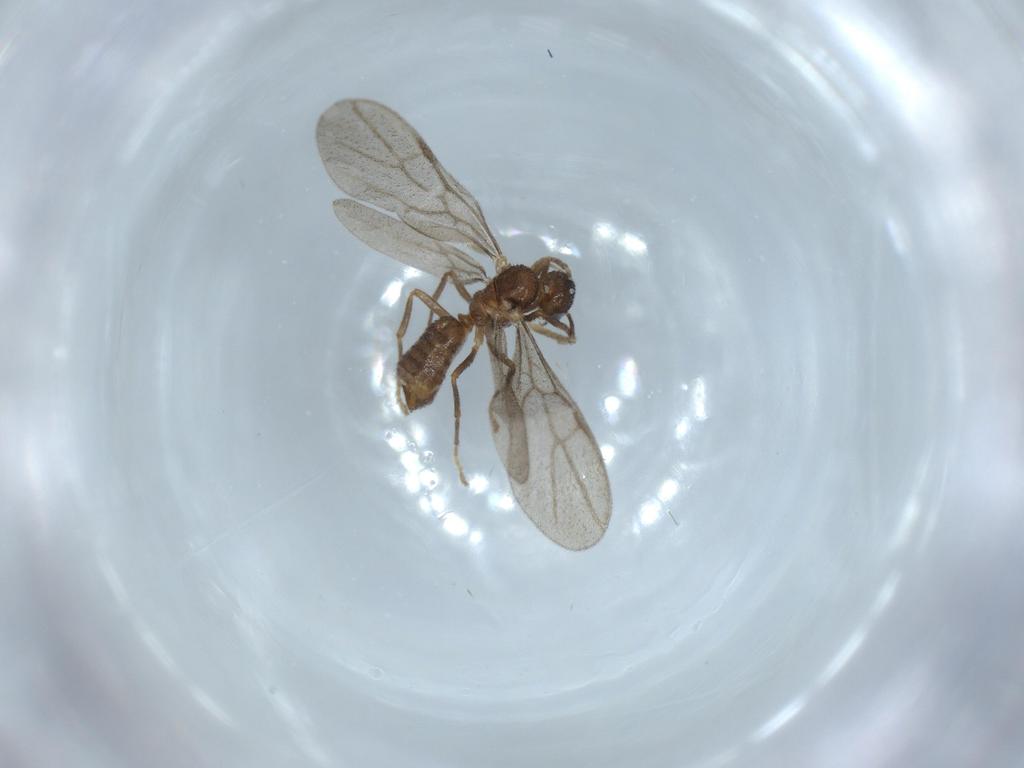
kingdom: Animalia
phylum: Arthropoda
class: Insecta
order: Hymenoptera
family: Formicidae
